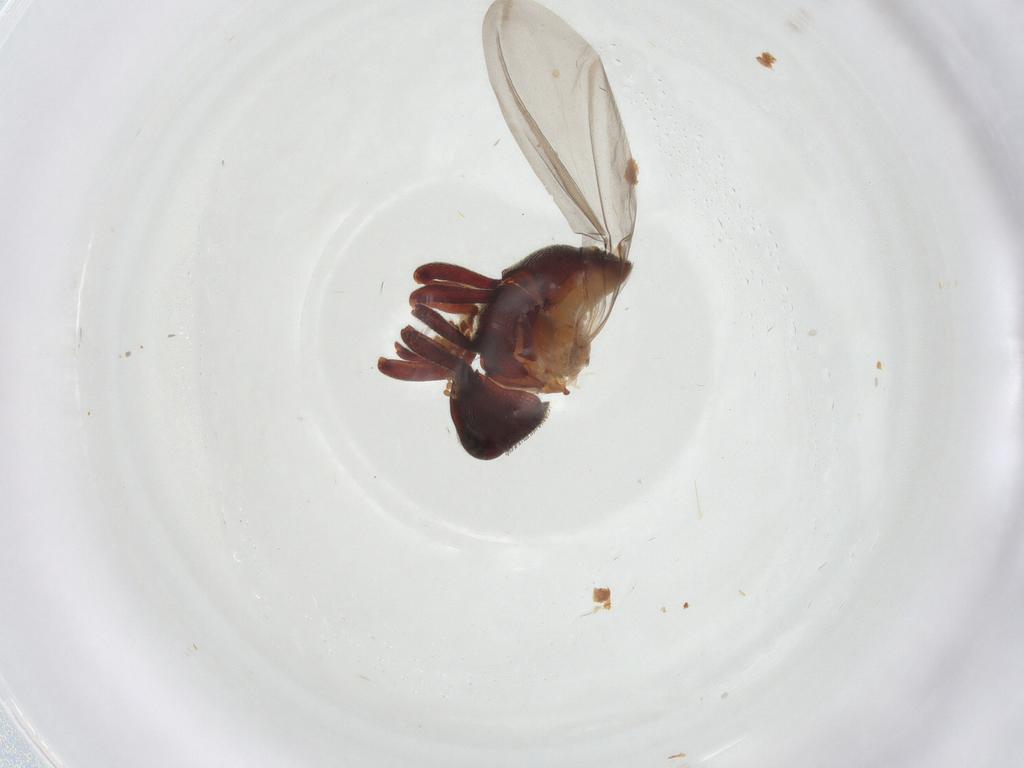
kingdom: Animalia
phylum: Arthropoda
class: Insecta
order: Coleoptera
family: Curculionidae
